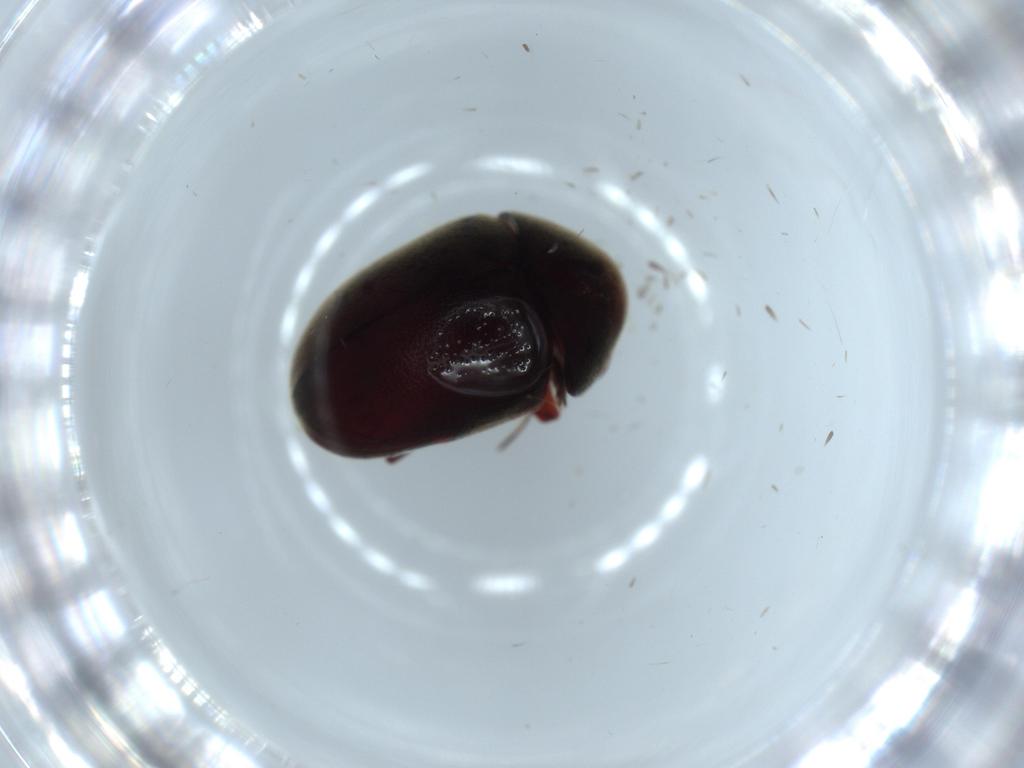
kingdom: Animalia
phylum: Arthropoda
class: Insecta
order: Coleoptera
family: Ptinidae
